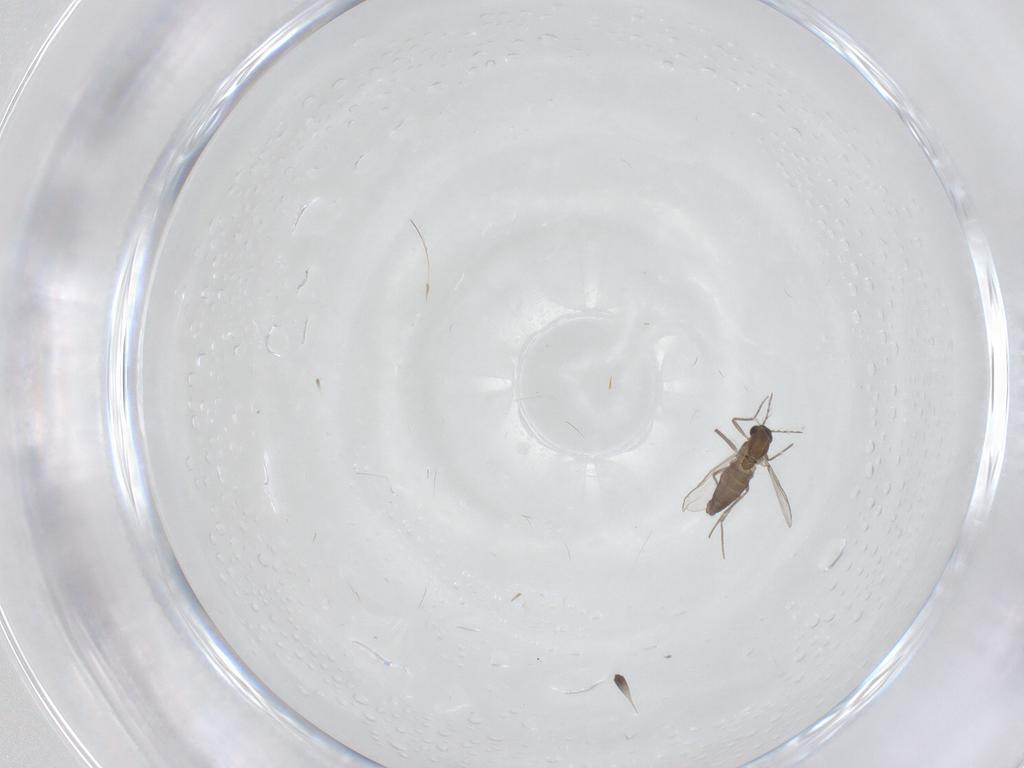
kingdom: Animalia
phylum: Arthropoda
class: Insecta
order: Diptera
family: Chironomidae
